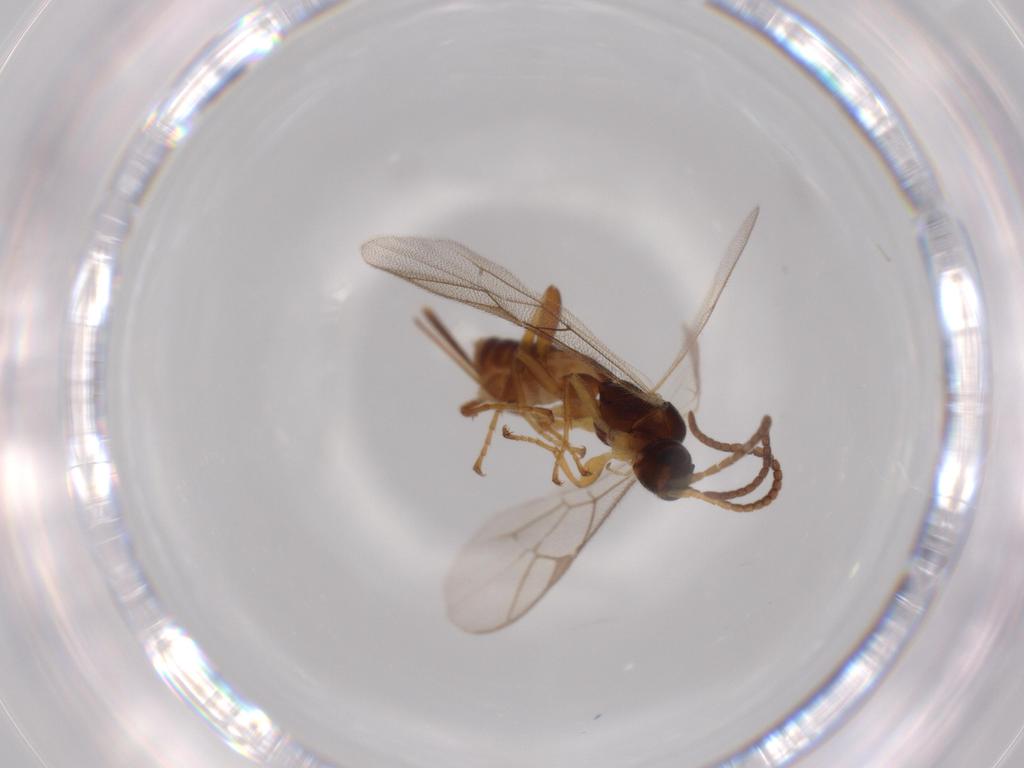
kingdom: Animalia
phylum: Arthropoda
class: Insecta
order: Hymenoptera
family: Ichneumonidae
